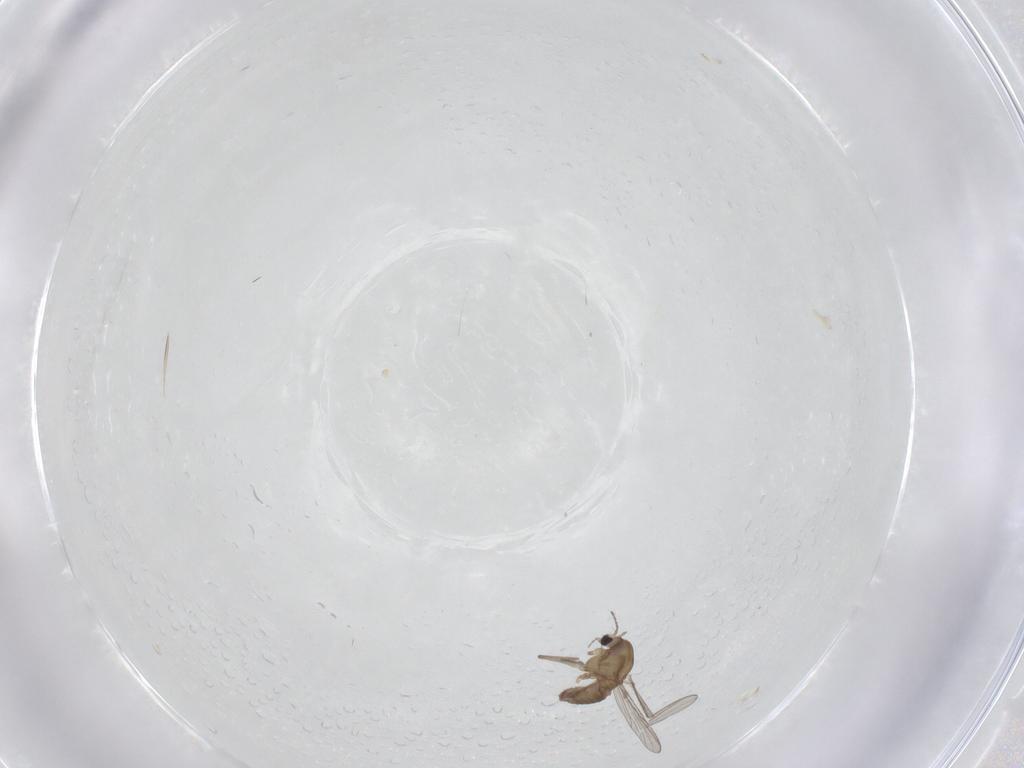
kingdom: Animalia
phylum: Arthropoda
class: Insecta
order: Diptera
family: Chironomidae
